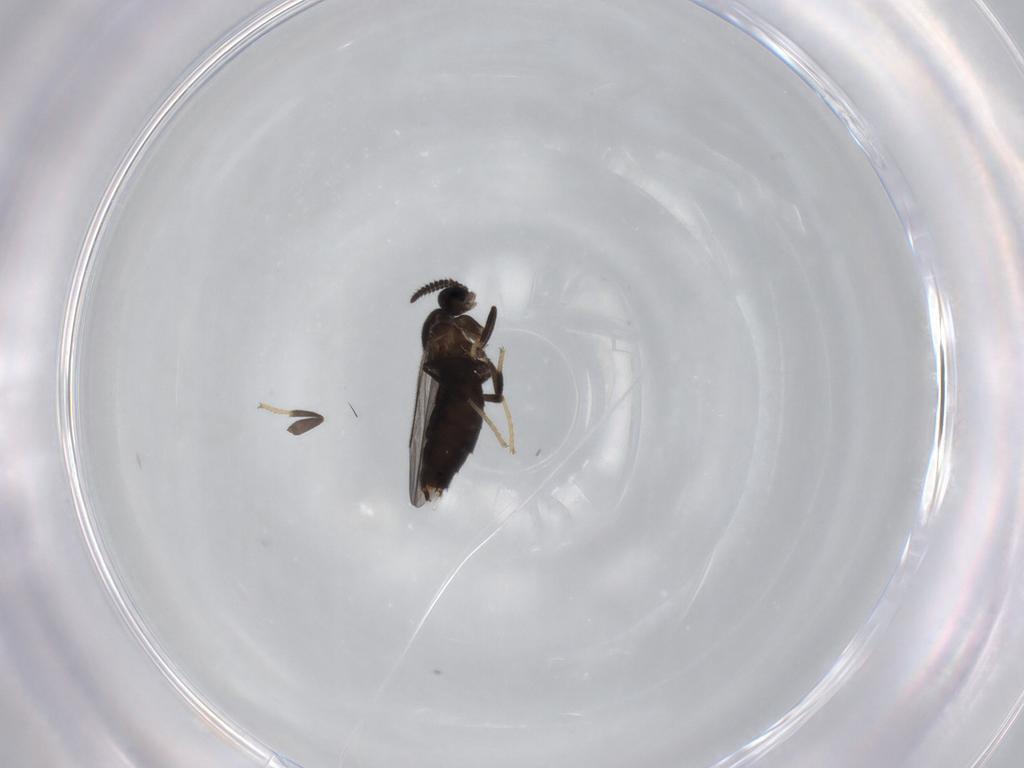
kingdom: Animalia
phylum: Arthropoda
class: Insecta
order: Diptera
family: Scatopsidae
